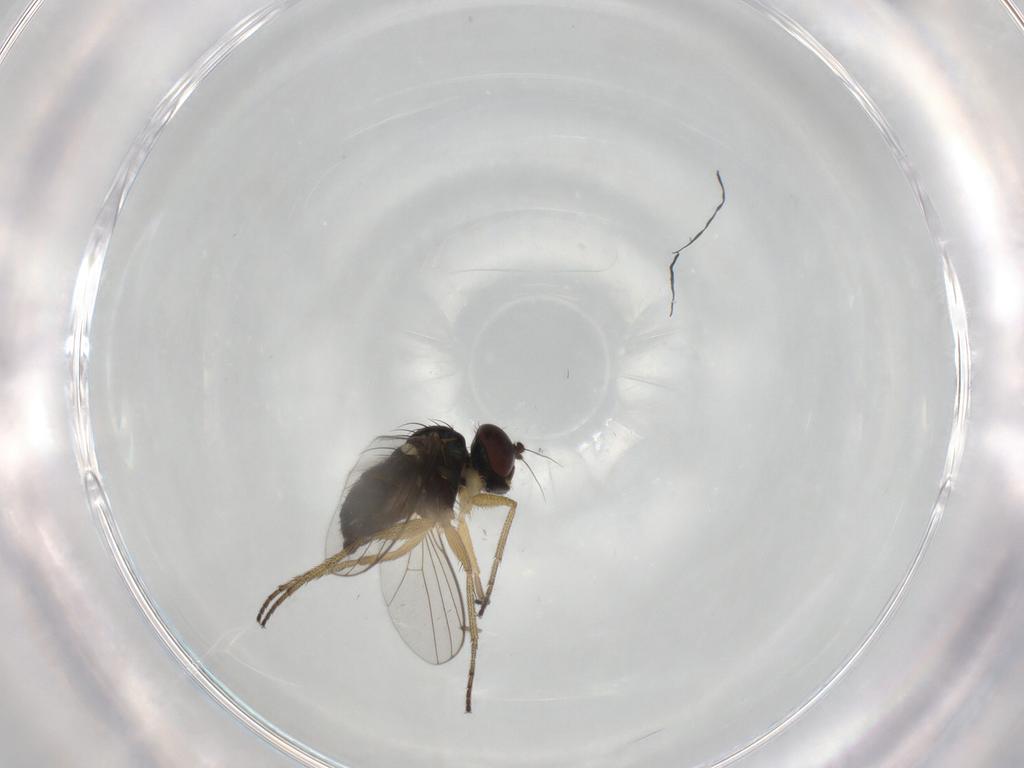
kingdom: Animalia
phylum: Arthropoda
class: Insecta
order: Diptera
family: Limoniidae
